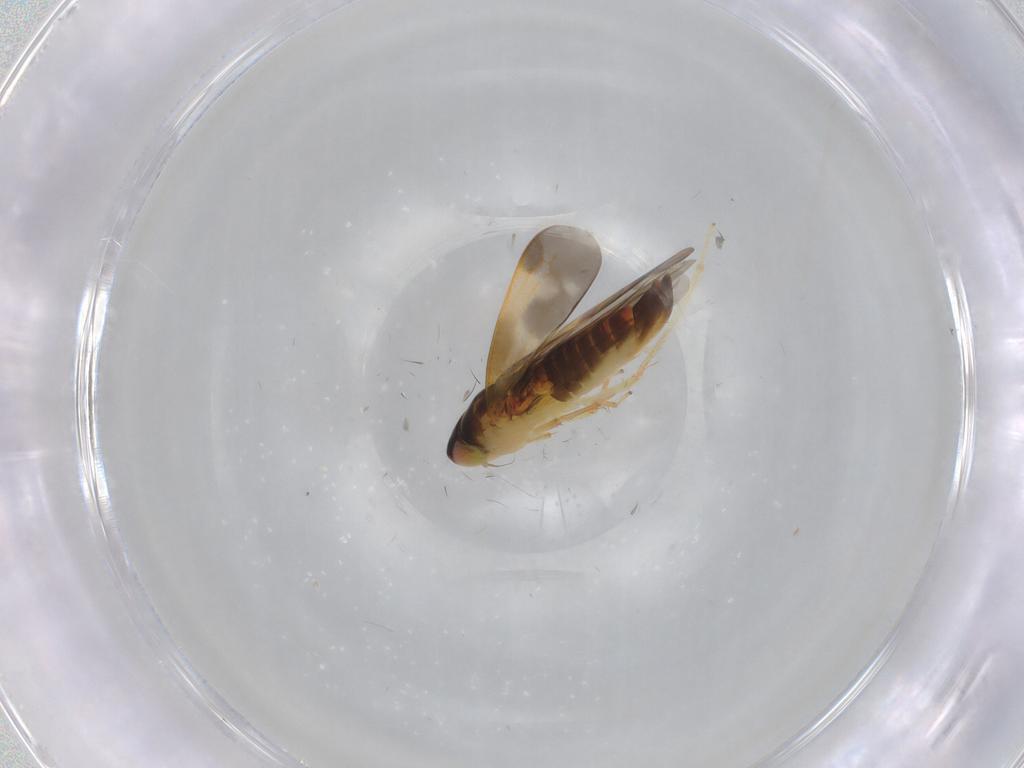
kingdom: Animalia
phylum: Arthropoda
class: Insecta
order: Hemiptera
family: Cicadellidae
